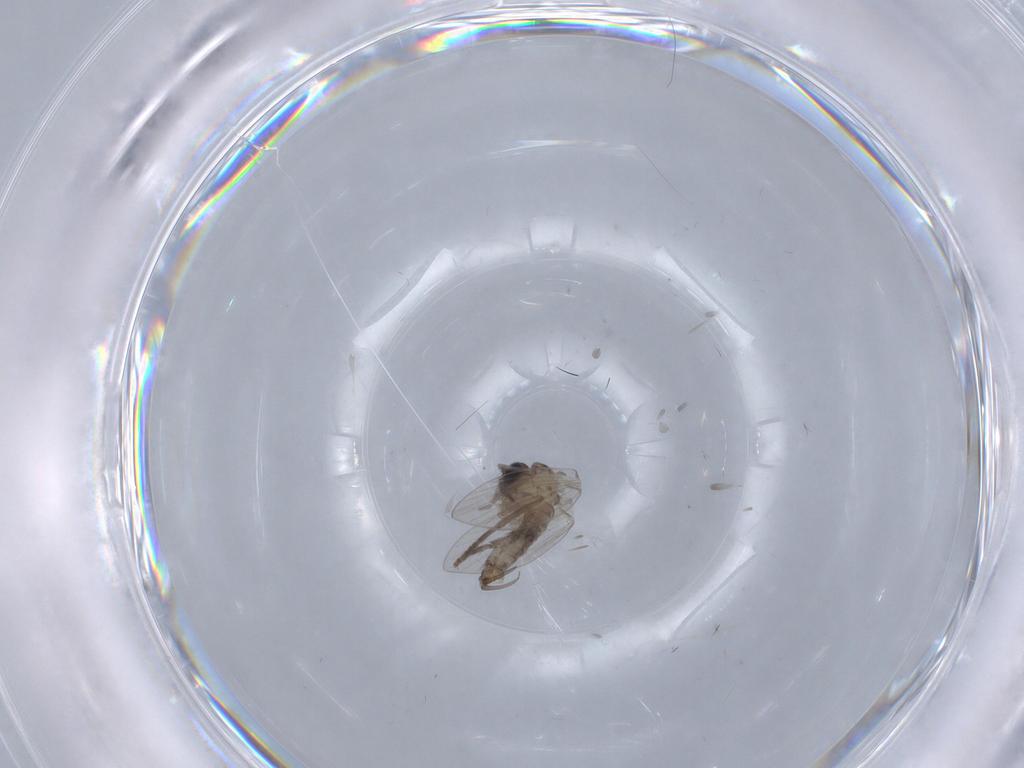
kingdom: Animalia
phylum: Arthropoda
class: Insecta
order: Diptera
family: Drosophilidae
